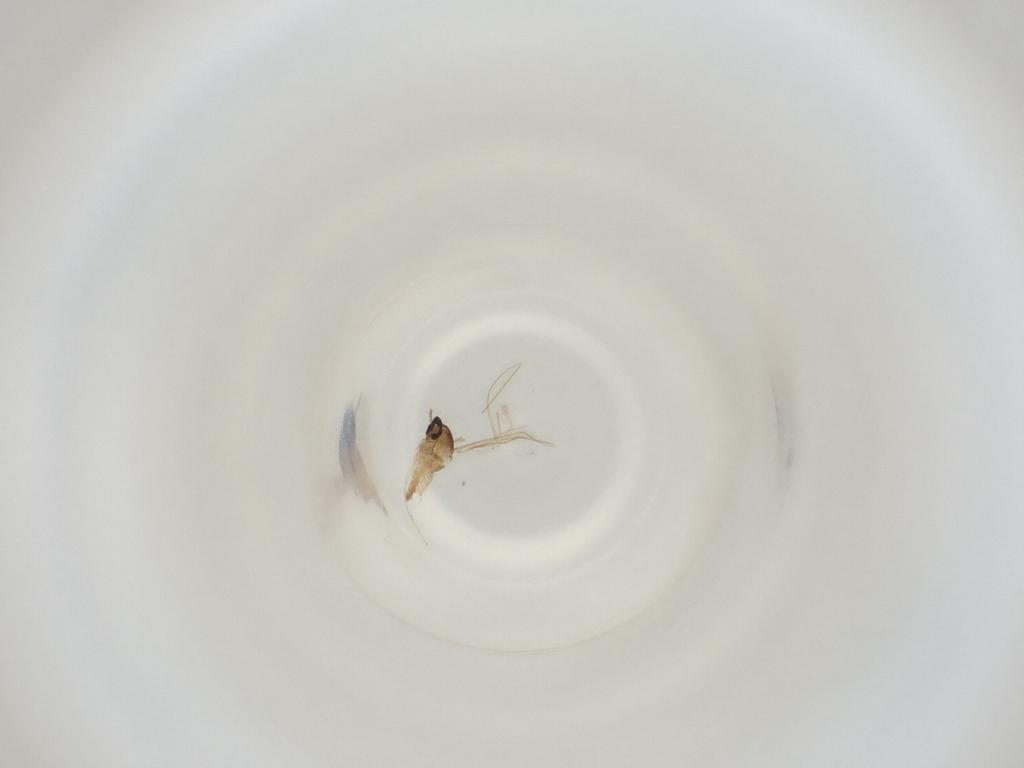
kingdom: Animalia
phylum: Arthropoda
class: Insecta
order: Diptera
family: Cecidomyiidae
